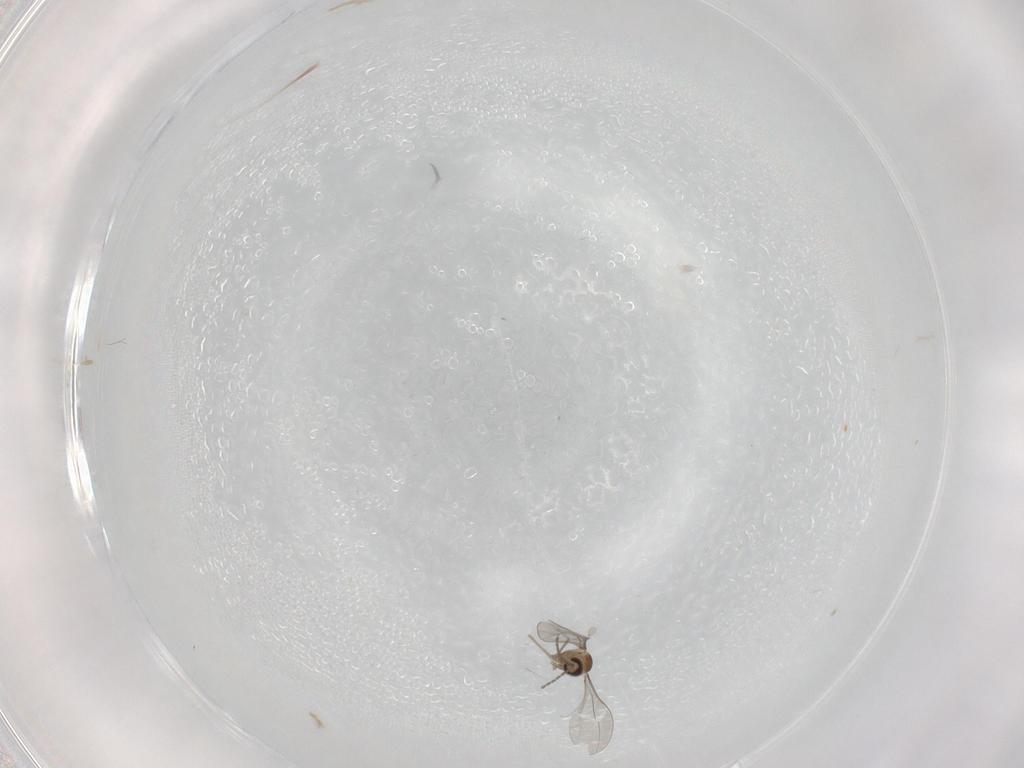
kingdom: Animalia
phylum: Arthropoda
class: Insecta
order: Diptera
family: Cecidomyiidae
